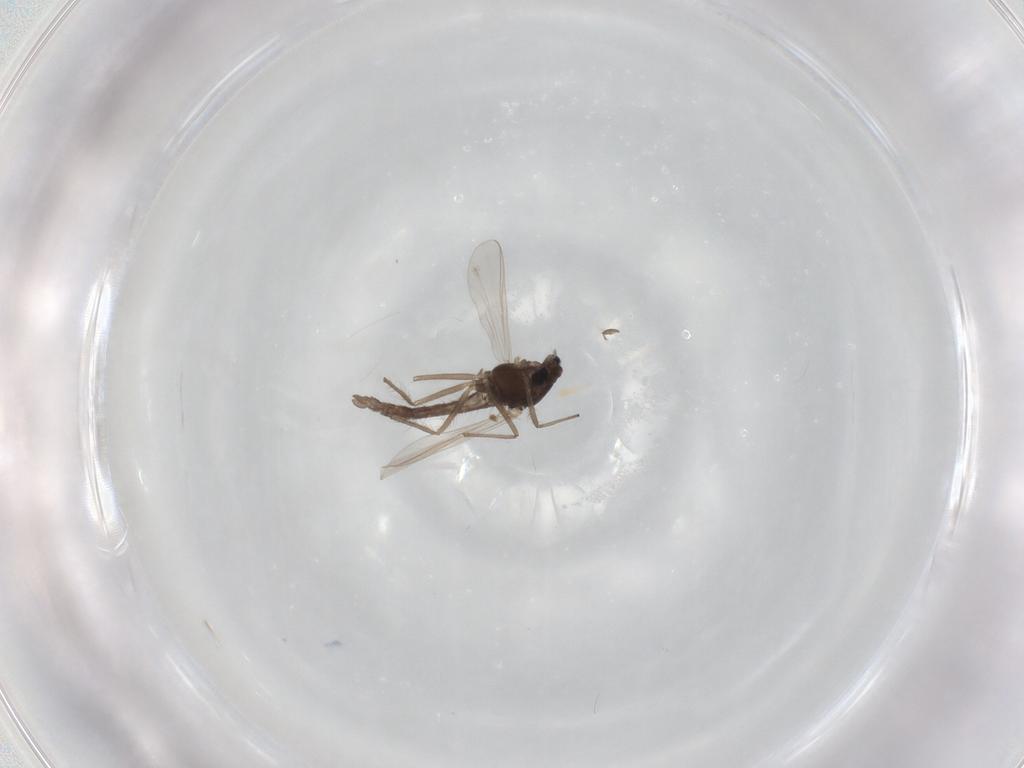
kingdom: Animalia
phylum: Arthropoda
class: Insecta
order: Diptera
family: Chironomidae
